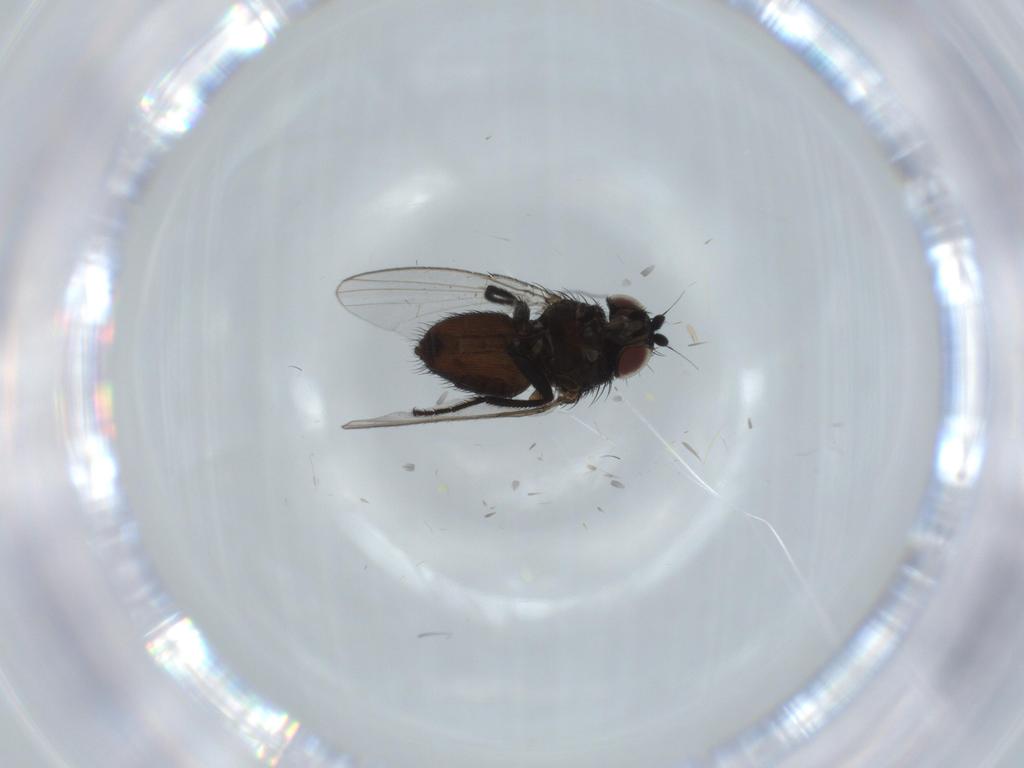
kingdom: Animalia
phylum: Arthropoda
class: Insecta
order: Diptera
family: Milichiidae
